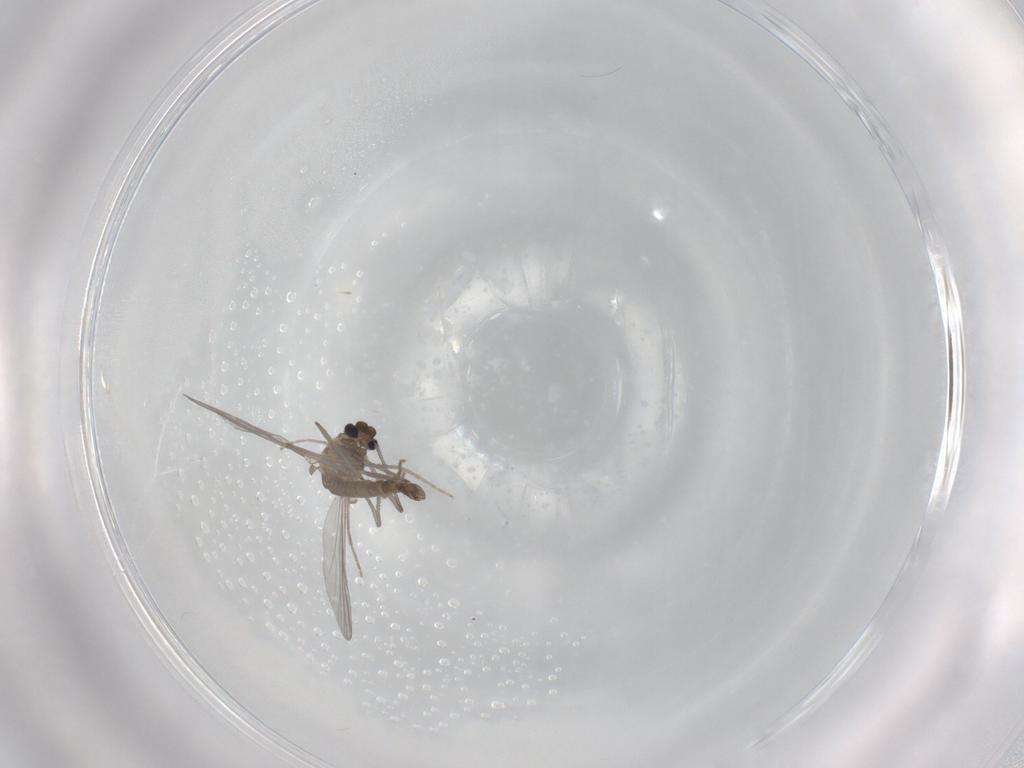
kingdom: Animalia
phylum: Arthropoda
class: Insecta
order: Diptera
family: Chironomidae
